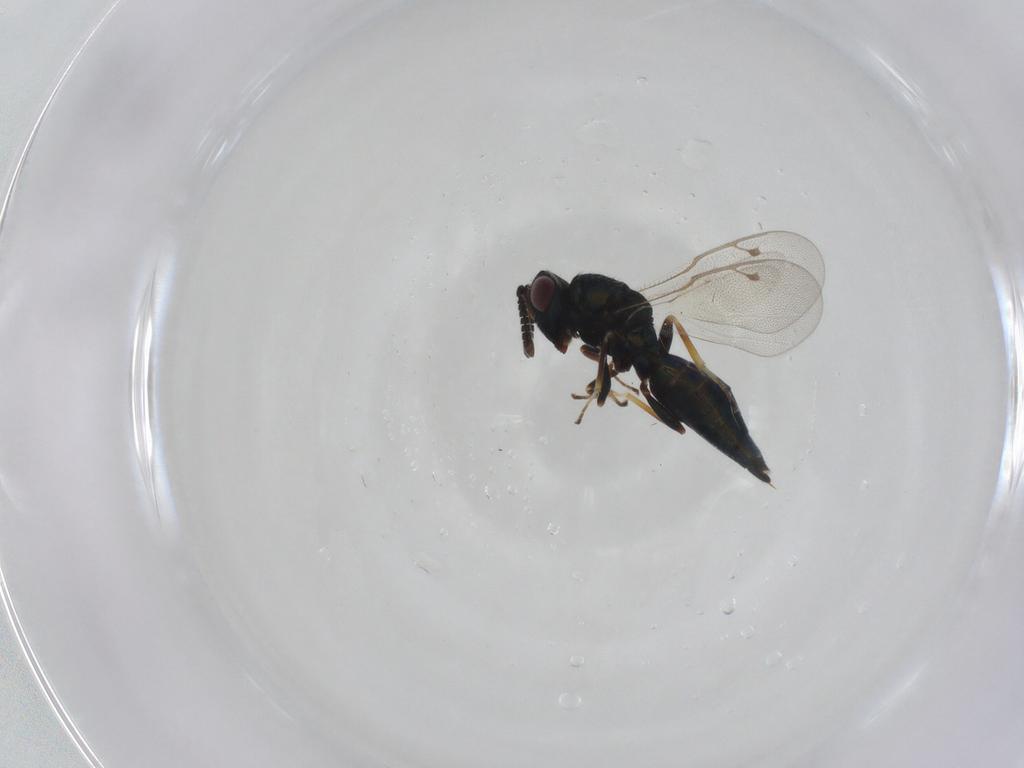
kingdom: Animalia
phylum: Arthropoda
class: Insecta
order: Hymenoptera
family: Pteromalidae
